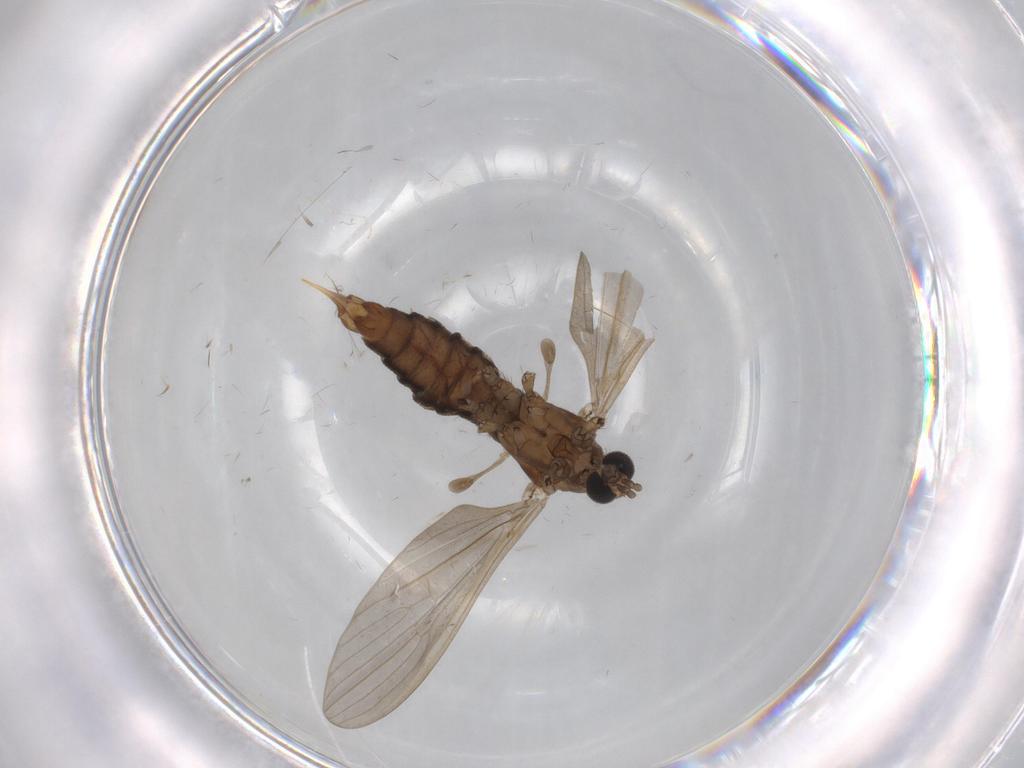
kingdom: Animalia
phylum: Arthropoda
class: Insecta
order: Diptera
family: Limoniidae
